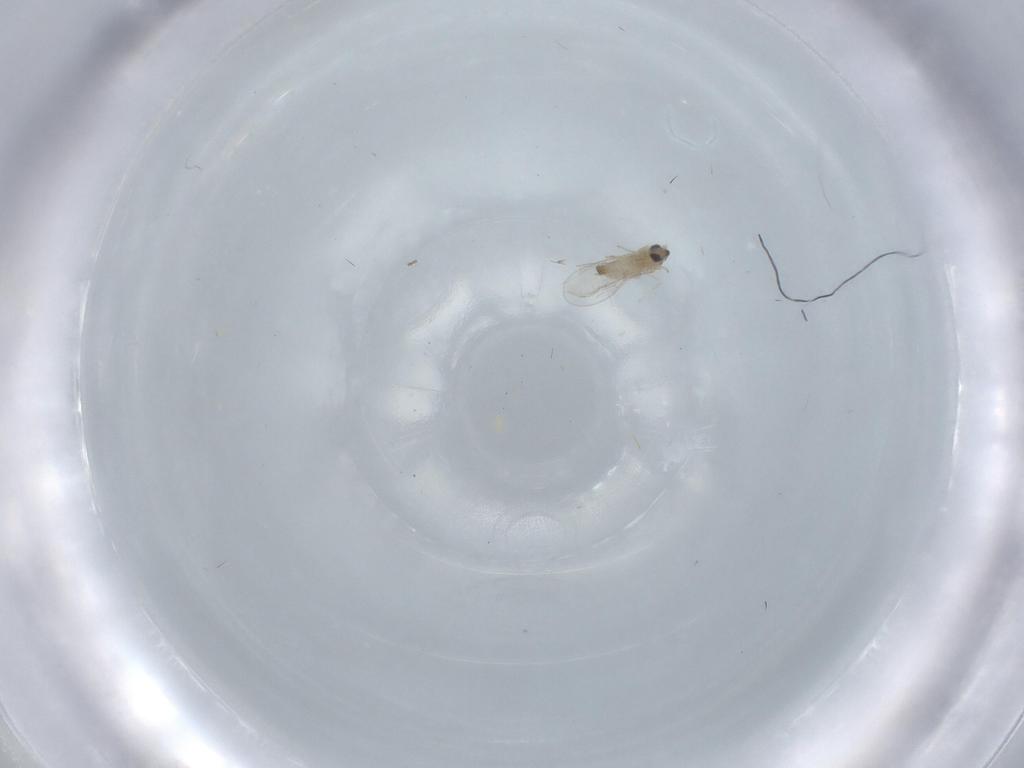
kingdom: Animalia
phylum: Arthropoda
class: Insecta
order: Diptera
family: Cecidomyiidae
